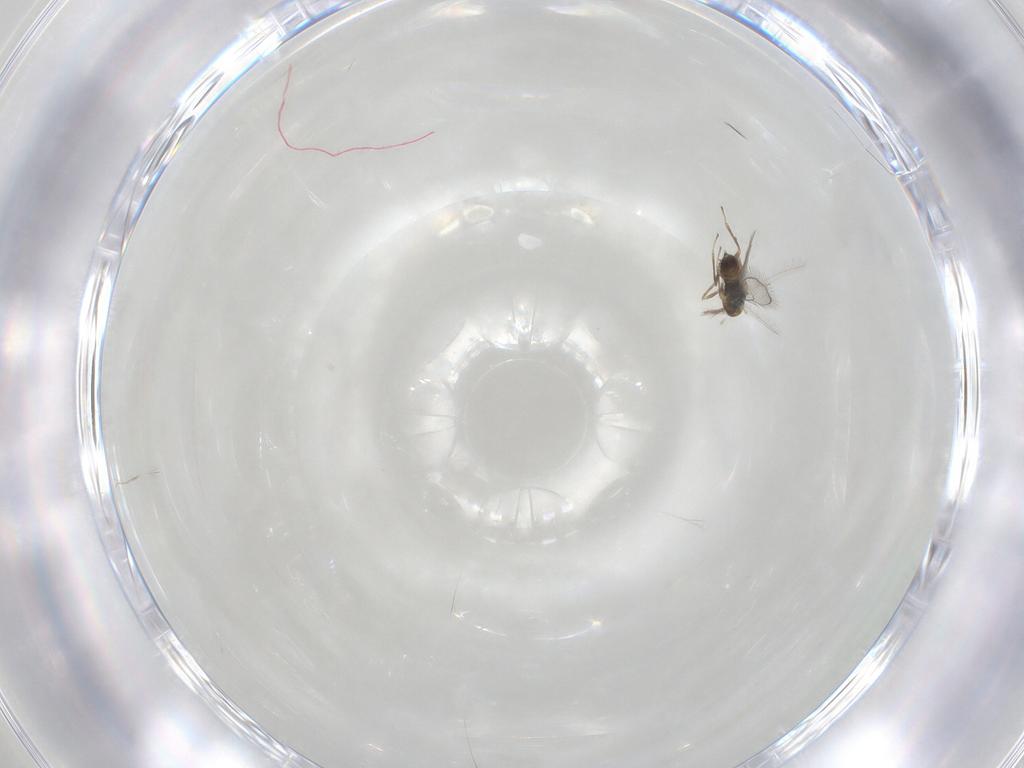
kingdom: Animalia
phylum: Arthropoda
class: Insecta
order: Hymenoptera
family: Eulophidae
